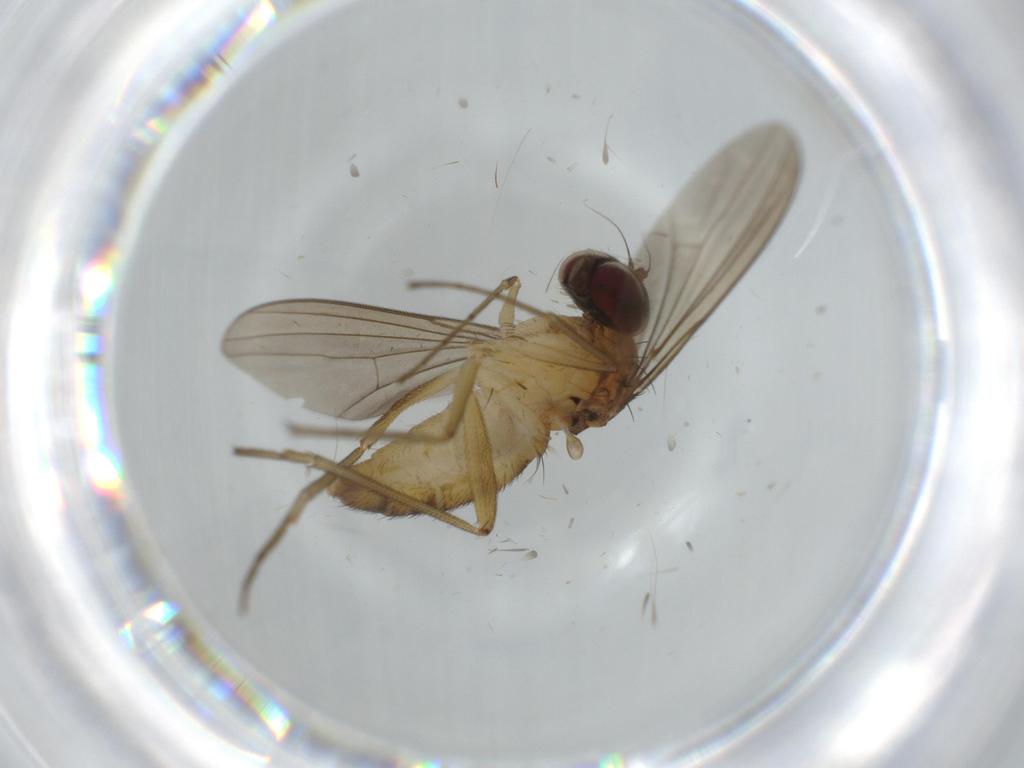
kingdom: Animalia
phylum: Arthropoda
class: Insecta
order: Diptera
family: Dolichopodidae
